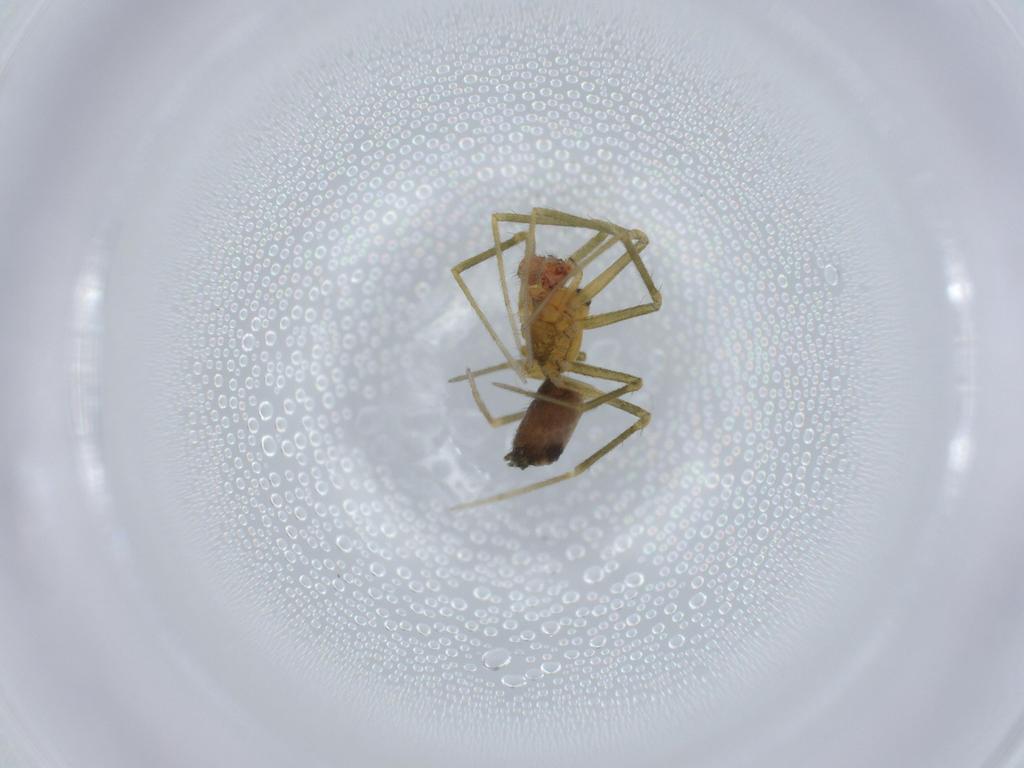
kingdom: Animalia
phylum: Arthropoda
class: Arachnida
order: Araneae
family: Linyphiidae
